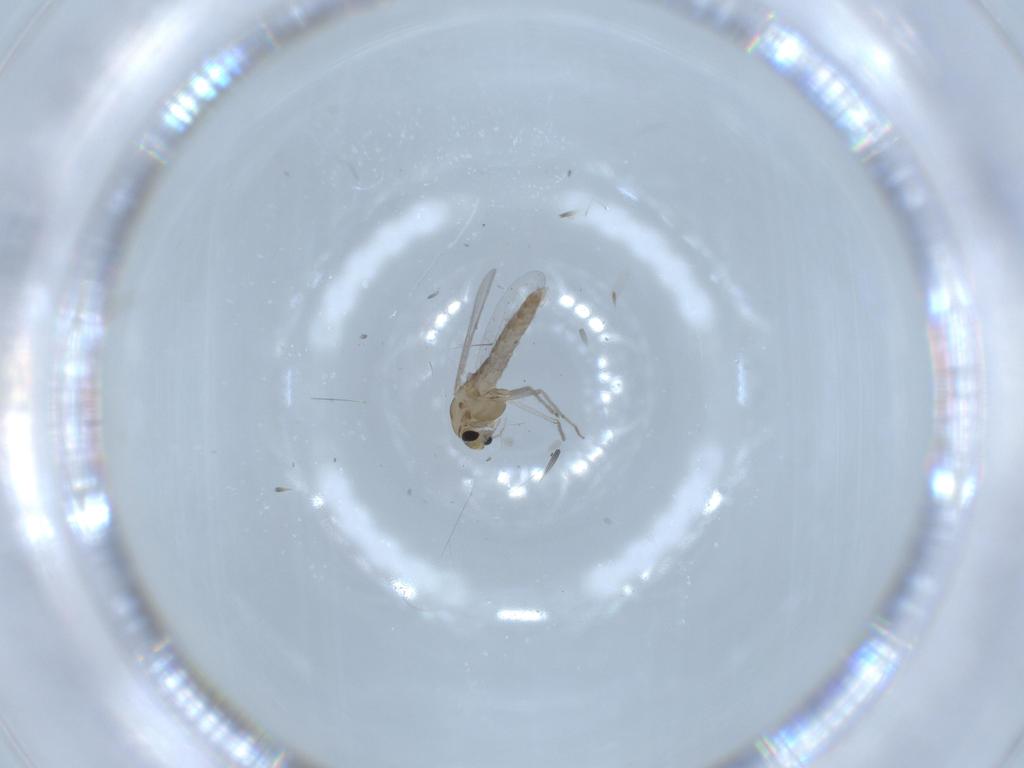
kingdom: Animalia
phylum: Arthropoda
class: Insecta
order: Diptera
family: Chironomidae
